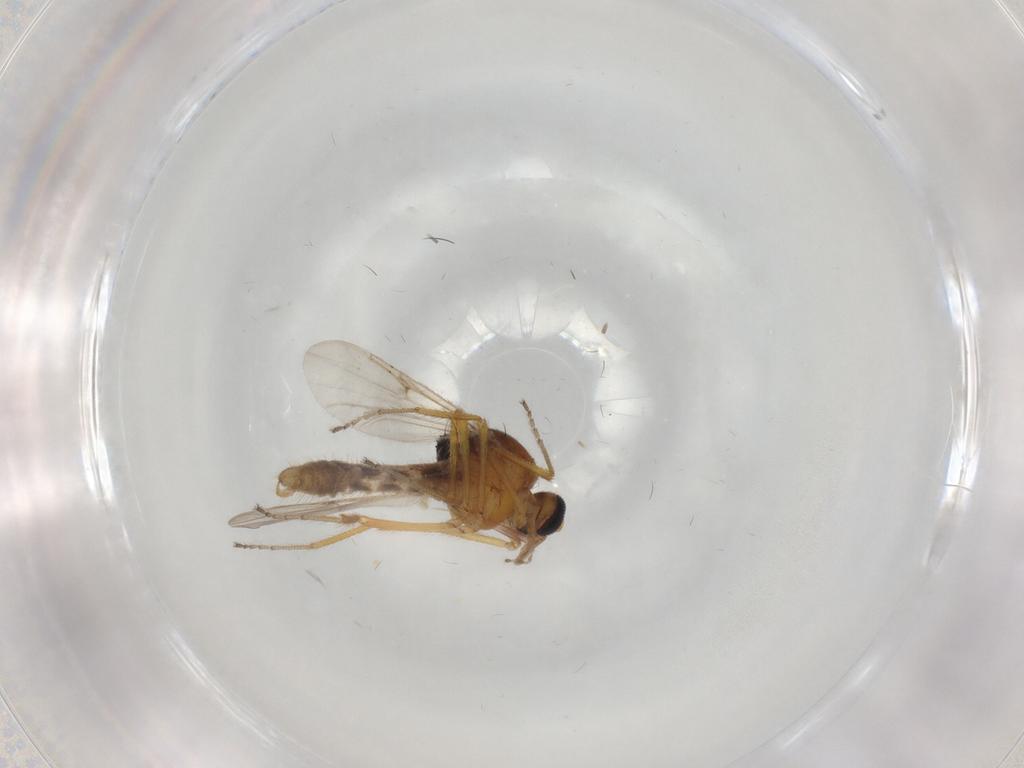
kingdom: Animalia
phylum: Arthropoda
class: Insecta
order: Diptera
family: Ceratopogonidae
